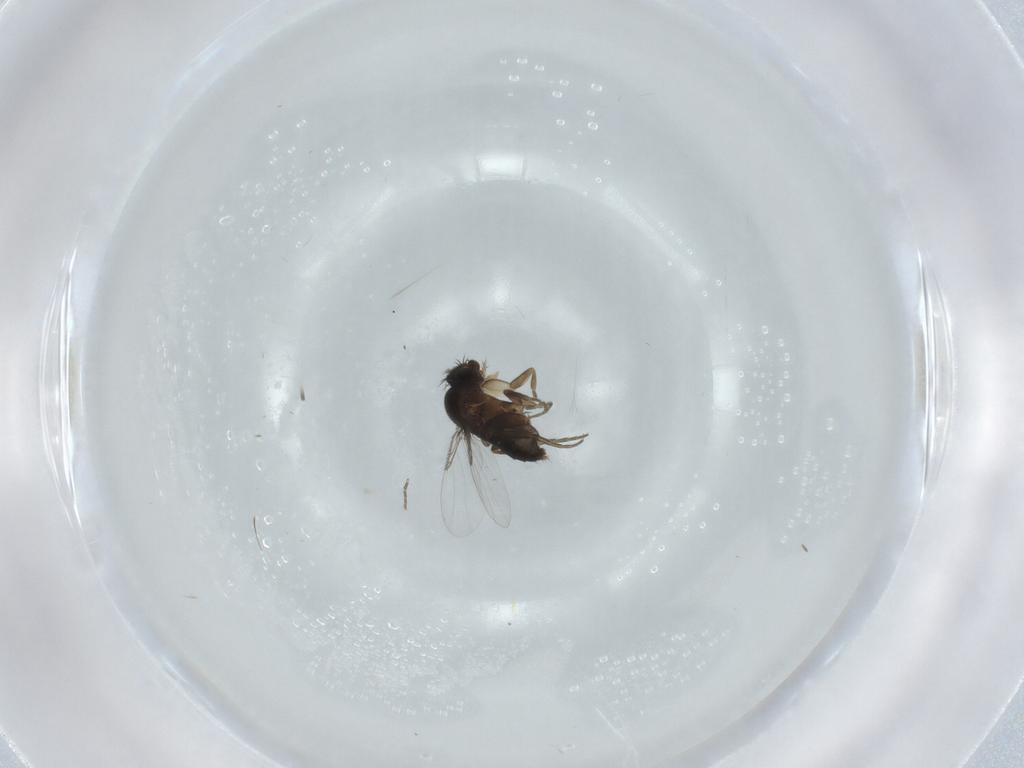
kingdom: Animalia
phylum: Arthropoda
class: Insecta
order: Diptera
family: Phoridae
